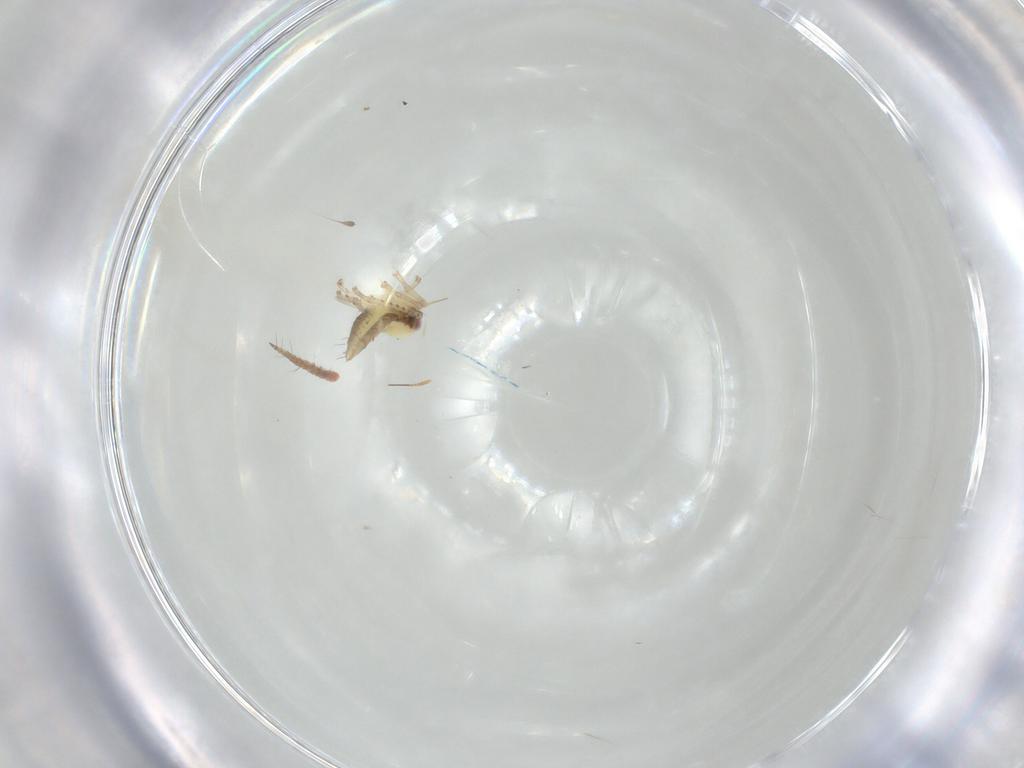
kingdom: Animalia
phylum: Arthropoda
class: Insecta
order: Hemiptera
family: Cicadellidae
